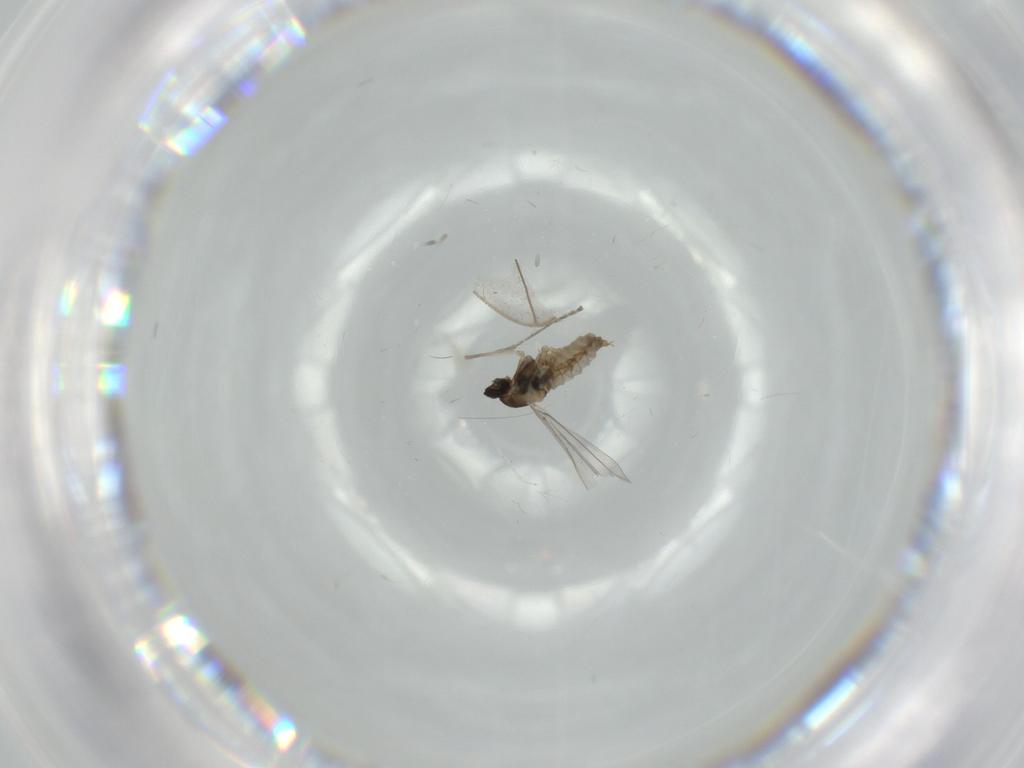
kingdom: Animalia
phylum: Arthropoda
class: Insecta
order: Diptera
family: Cecidomyiidae
